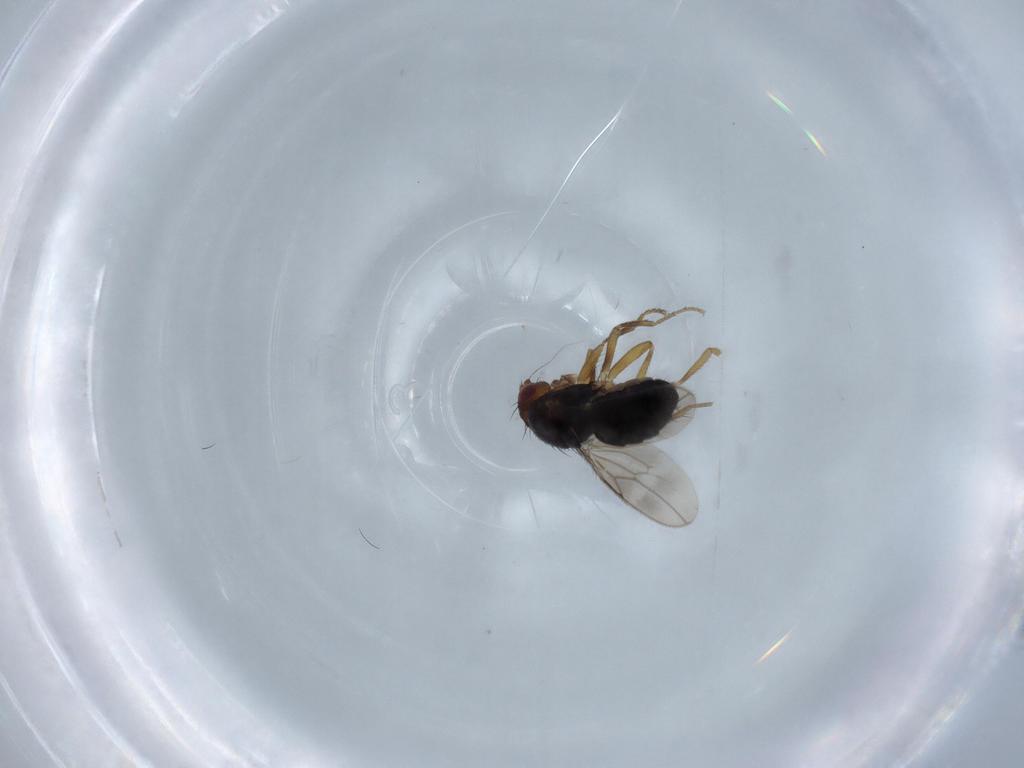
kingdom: Animalia
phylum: Arthropoda
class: Insecta
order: Diptera
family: Sphaeroceridae
